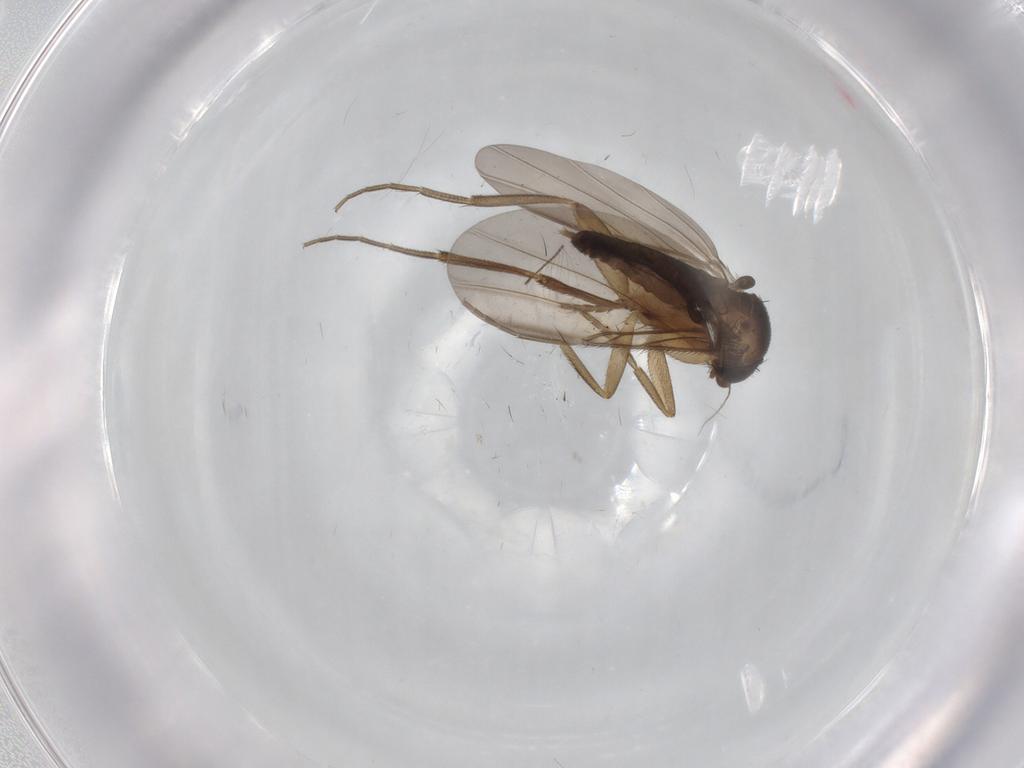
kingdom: Animalia
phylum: Arthropoda
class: Insecta
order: Diptera
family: Phoridae
